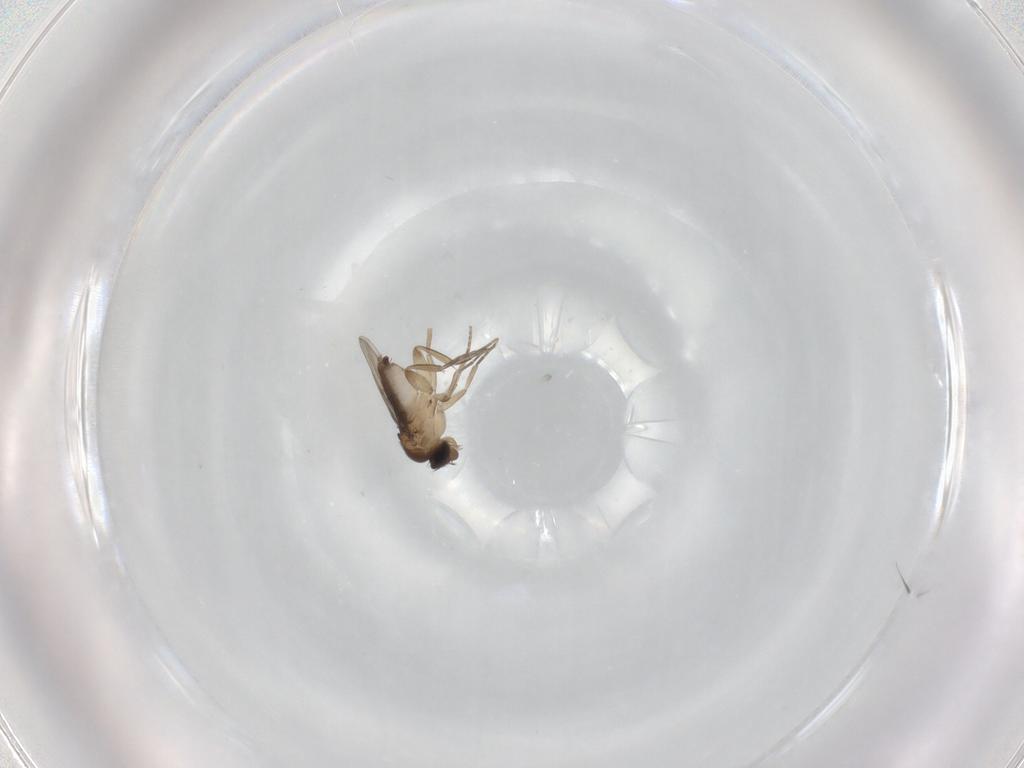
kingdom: Animalia
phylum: Arthropoda
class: Insecta
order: Diptera
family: Phoridae
